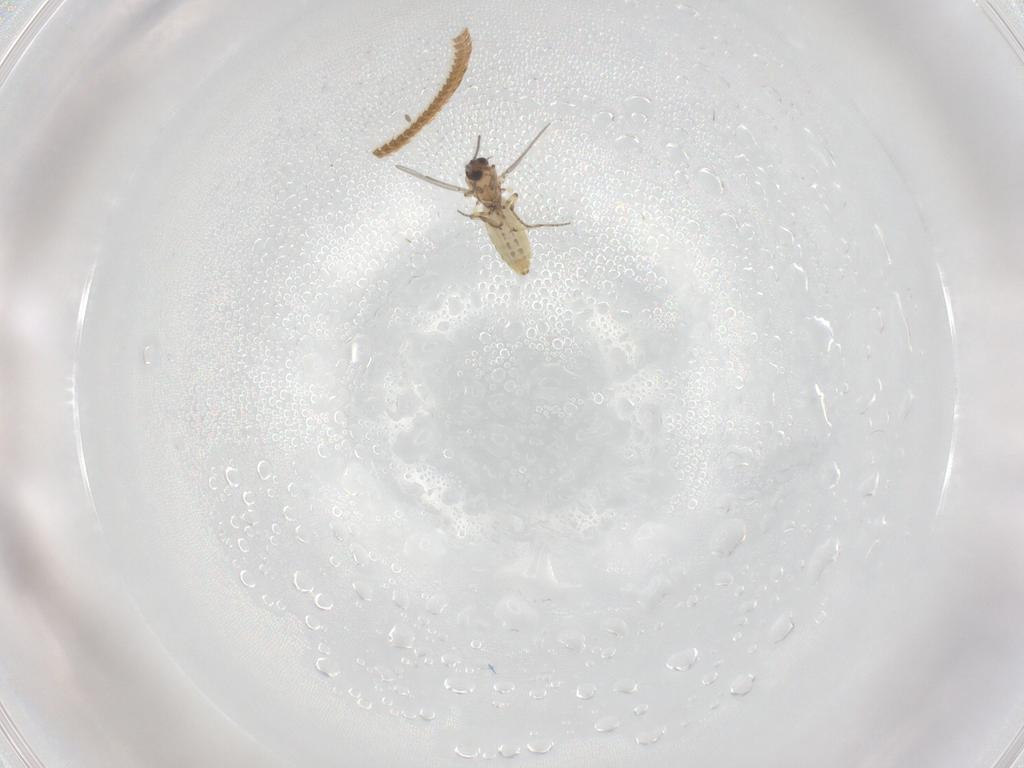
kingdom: Animalia
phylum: Arthropoda
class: Insecta
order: Diptera
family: Ceratopogonidae
